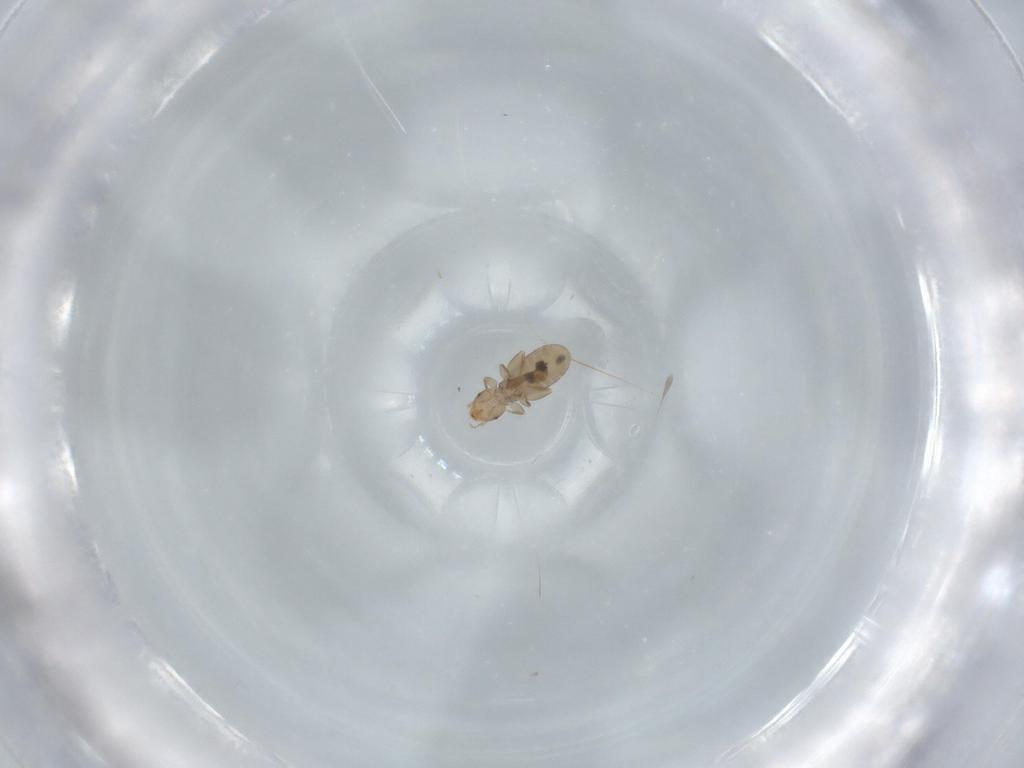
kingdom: Animalia
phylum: Arthropoda
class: Insecta
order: Psocodea
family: Liposcelididae
